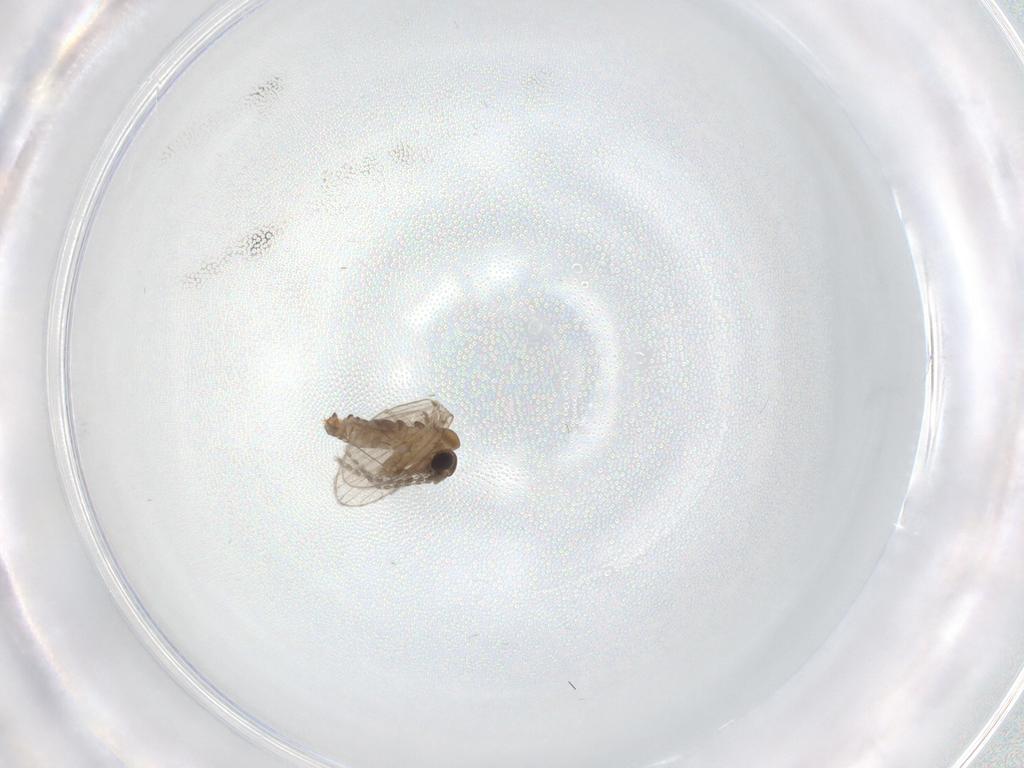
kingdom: Animalia
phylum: Arthropoda
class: Insecta
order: Diptera
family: Psychodidae
